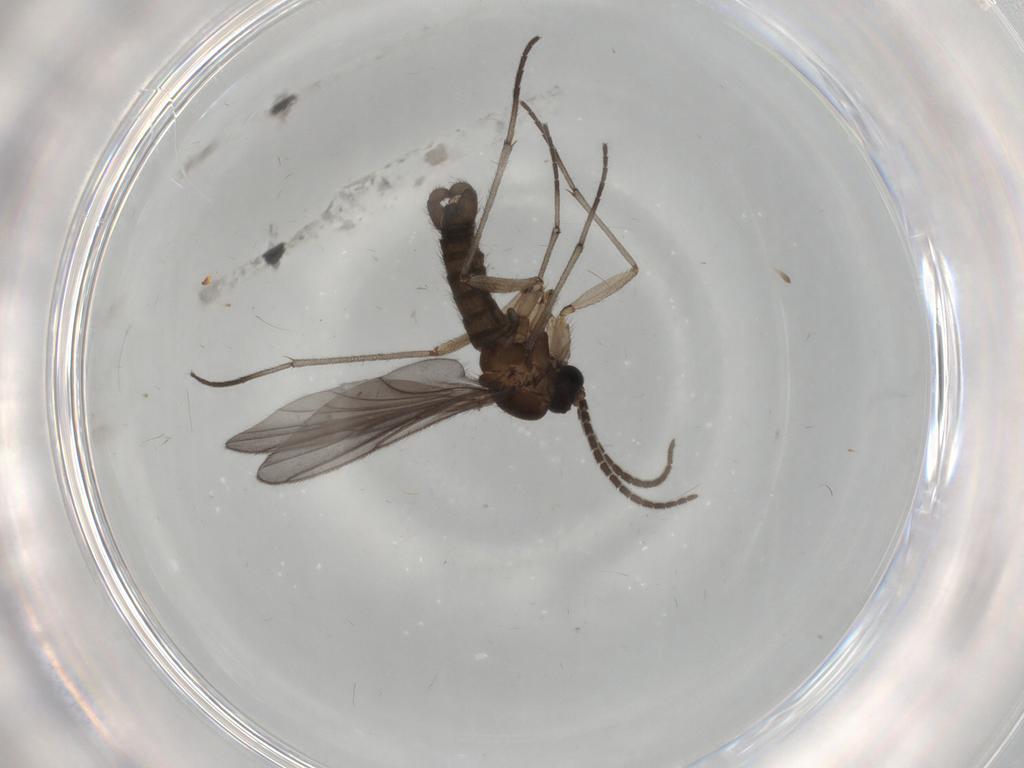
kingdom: Animalia
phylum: Arthropoda
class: Insecta
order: Diptera
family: Sciaridae
